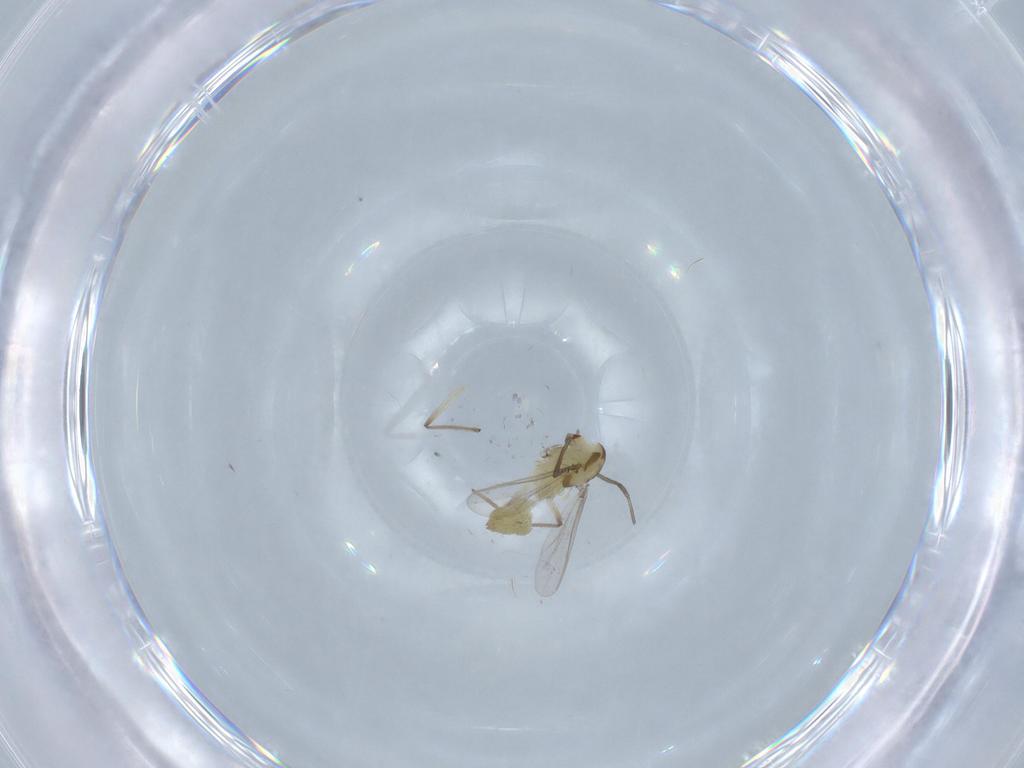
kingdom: Animalia
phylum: Arthropoda
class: Insecta
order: Diptera
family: Chironomidae
